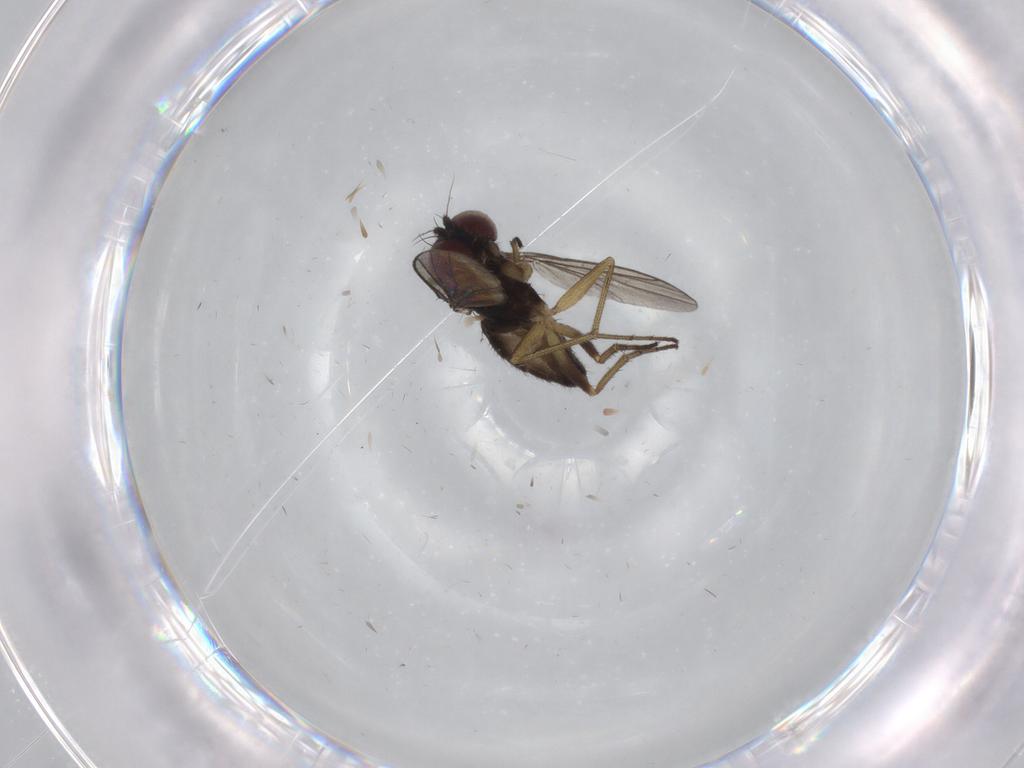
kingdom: Animalia
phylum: Arthropoda
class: Insecta
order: Diptera
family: Dolichopodidae
